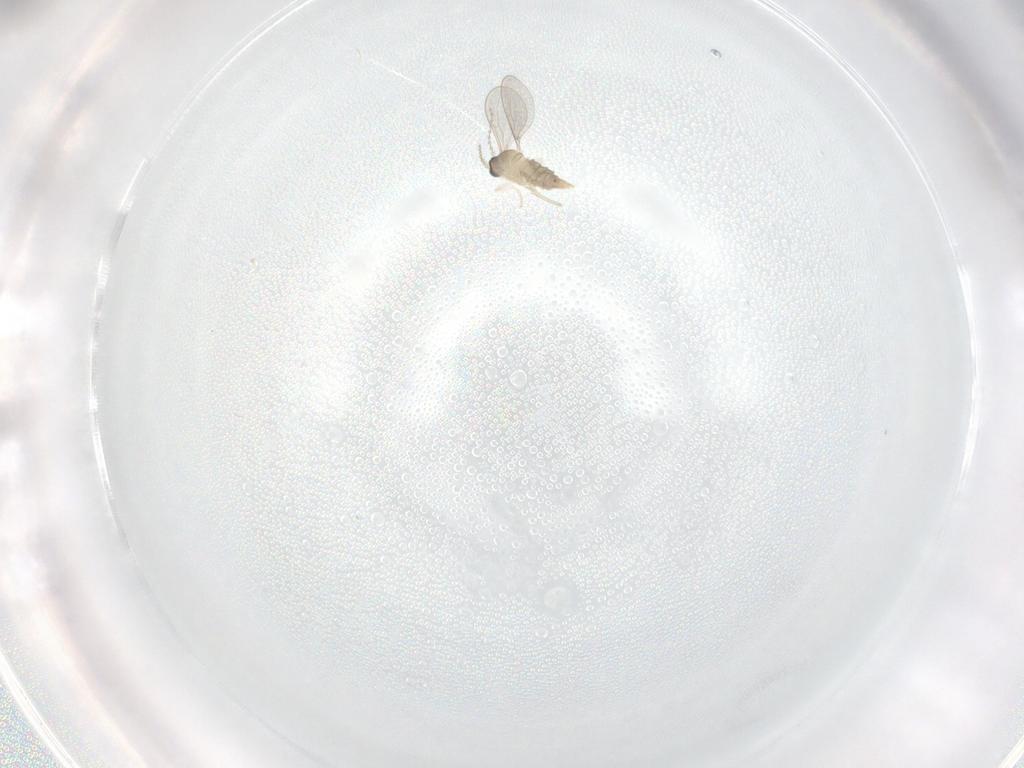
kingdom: Animalia
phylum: Arthropoda
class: Insecta
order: Diptera
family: Cecidomyiidae
